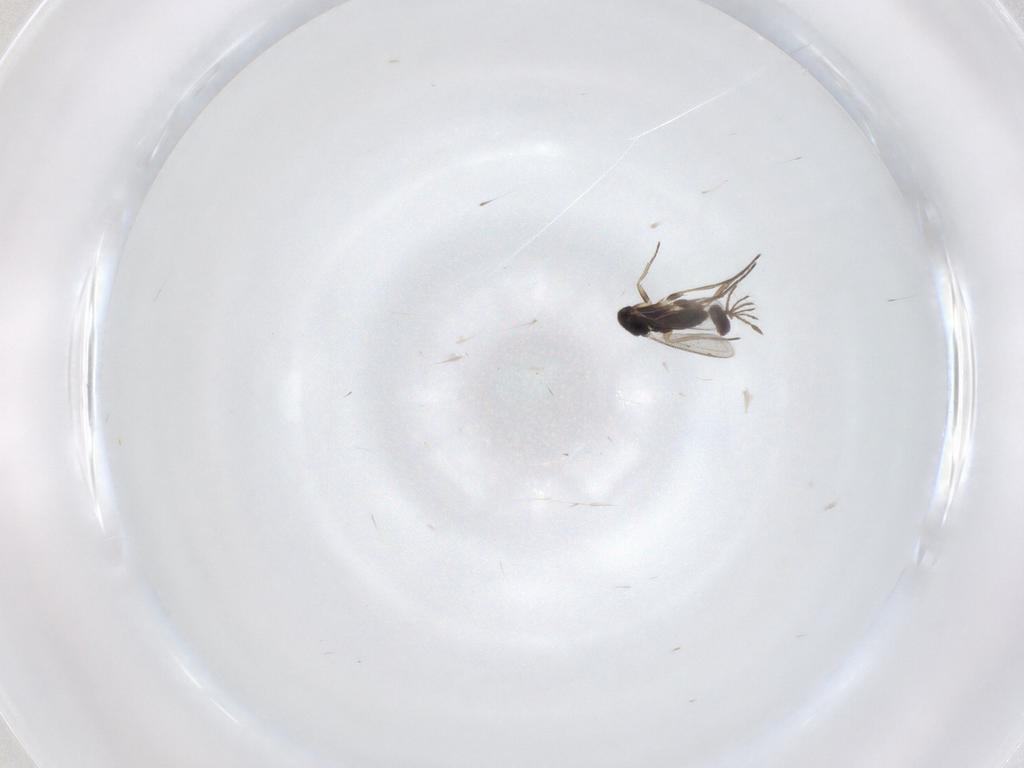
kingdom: Animalia
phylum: Arthropoda
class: Insecta
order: Hymenoptera
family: Eulophidae
